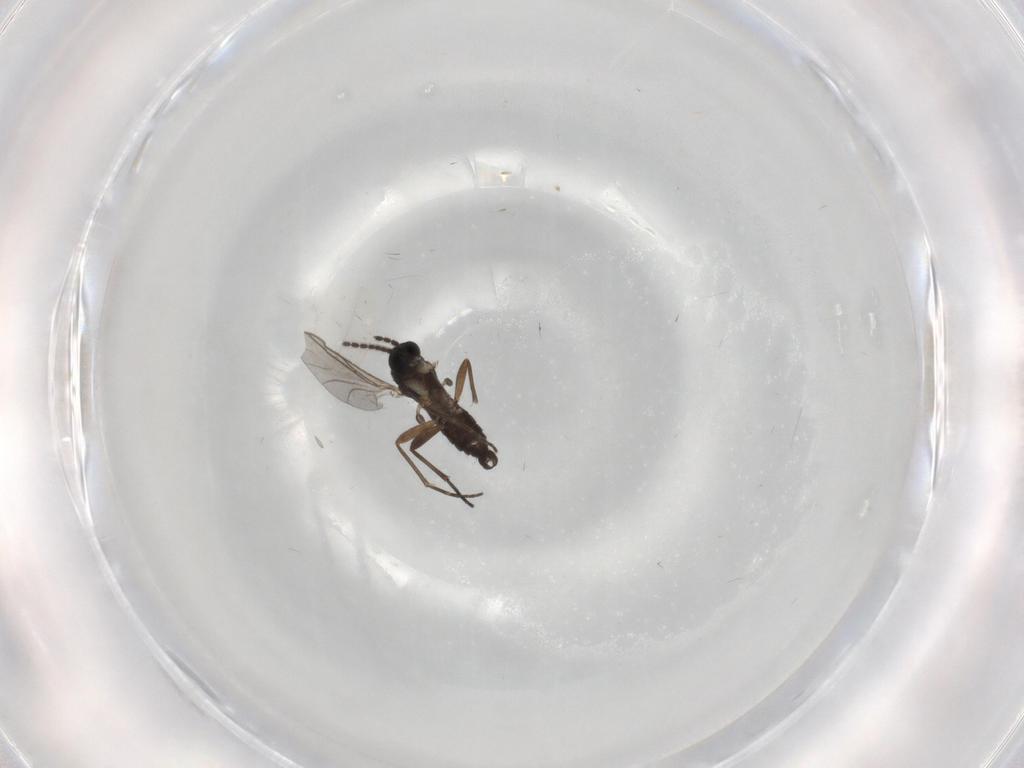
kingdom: Animalia
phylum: Arthropoda
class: Insecta
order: Diptera
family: Sciaridae
